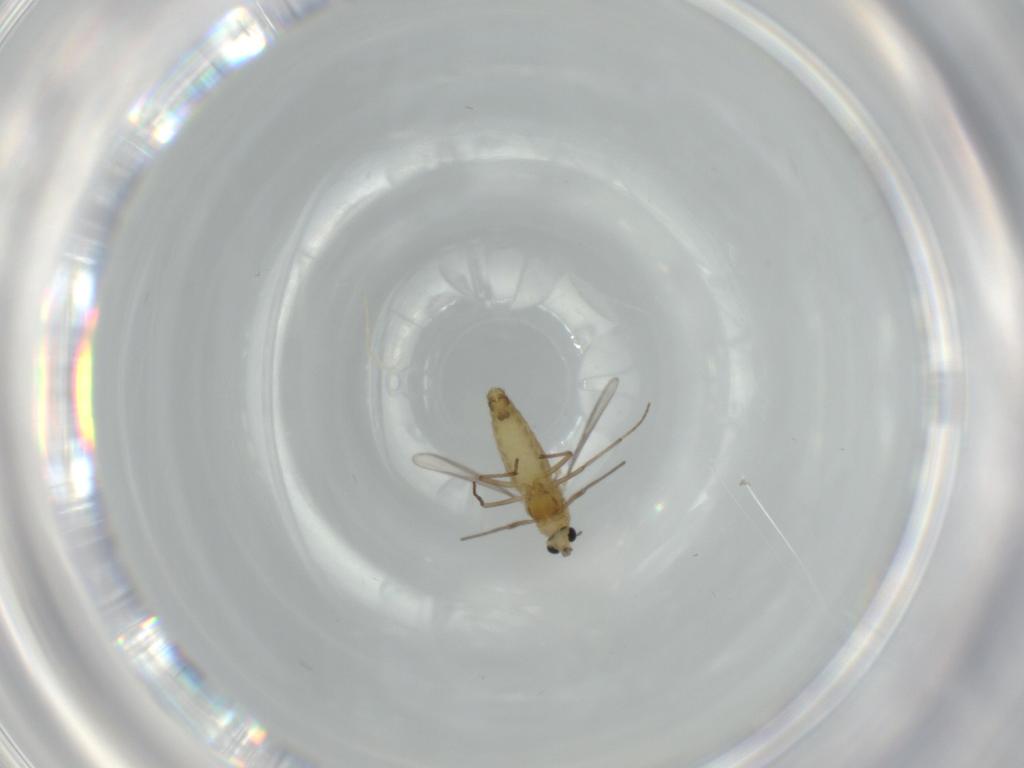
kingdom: Animalia
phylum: Arthropoda
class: Insecta
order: Diptera
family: Chironomidae
